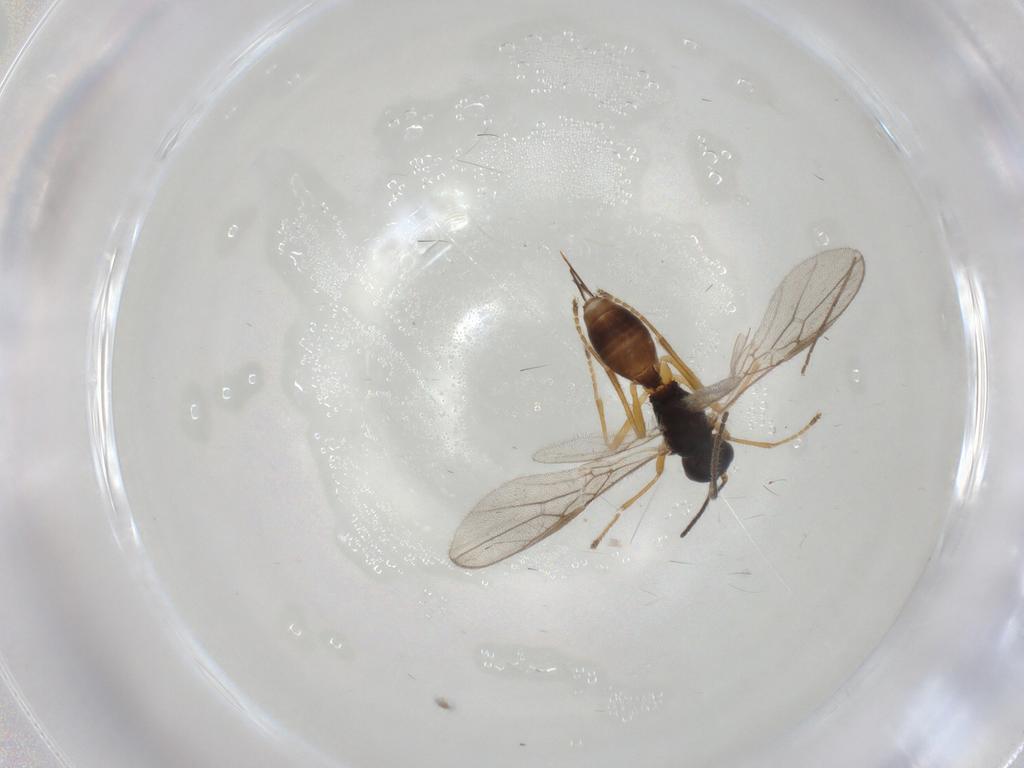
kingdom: Animalia
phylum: Arthropoda
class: Insecta
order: Hymenoptera
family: Braconidae
